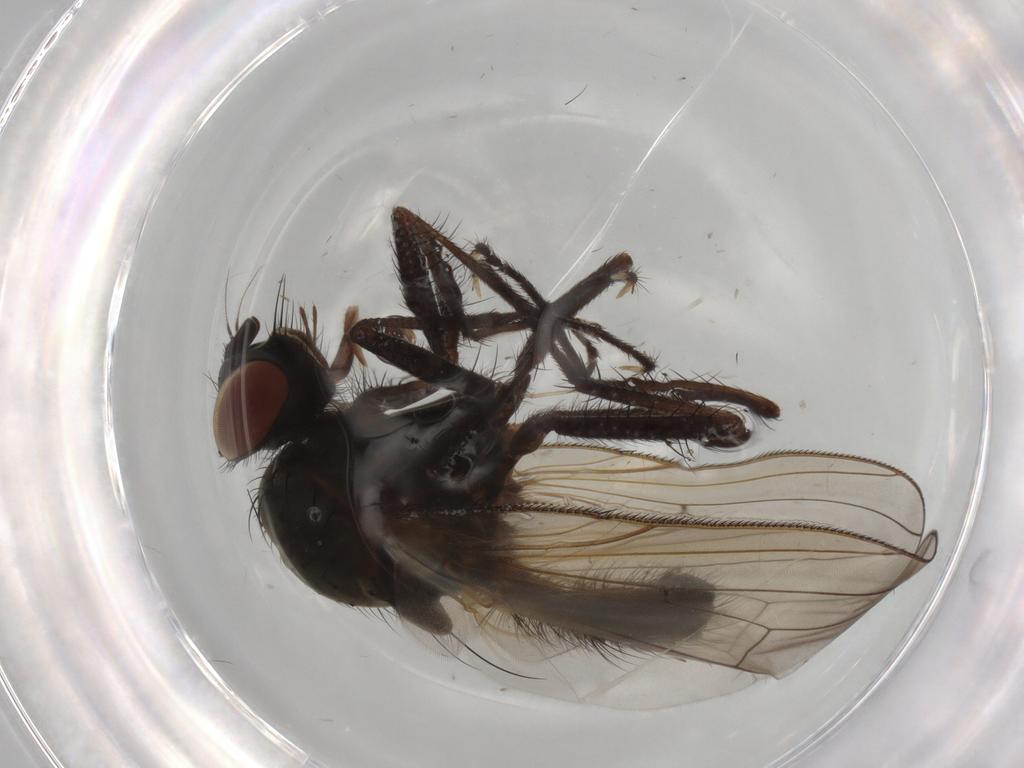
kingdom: Animalia
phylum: Arthropoda
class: Insecta
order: Diptera
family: Anthomyiidae
